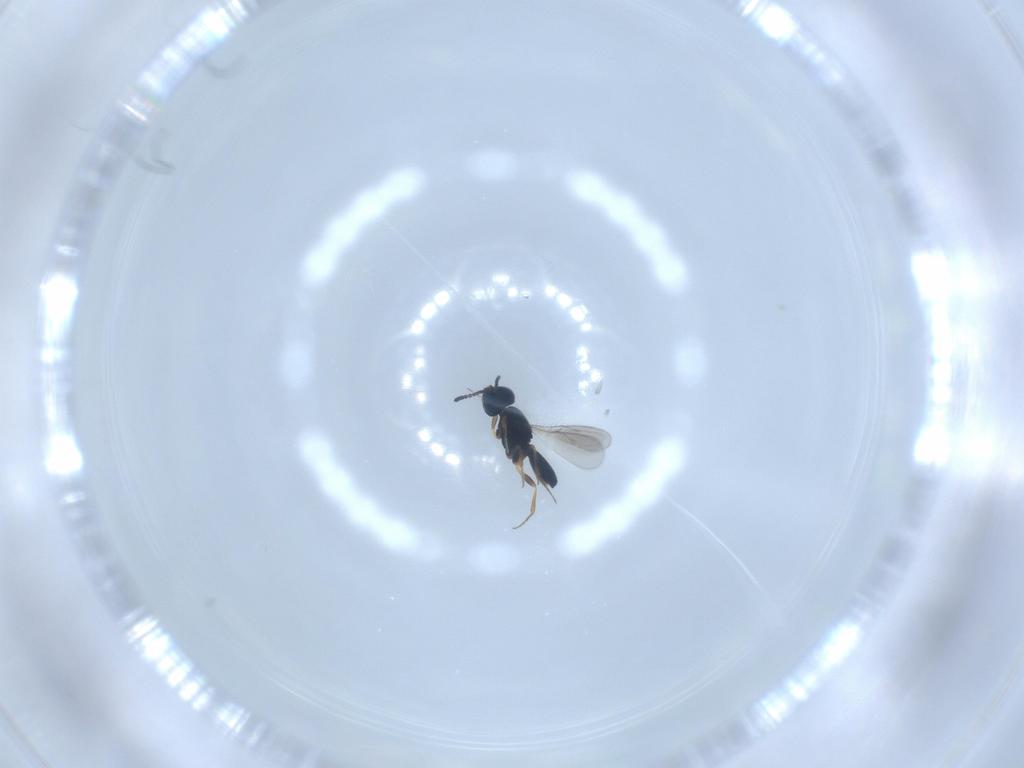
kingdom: Animalia
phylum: Arthropoda
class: Insecta
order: Hymenoptera
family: Scelionidae
